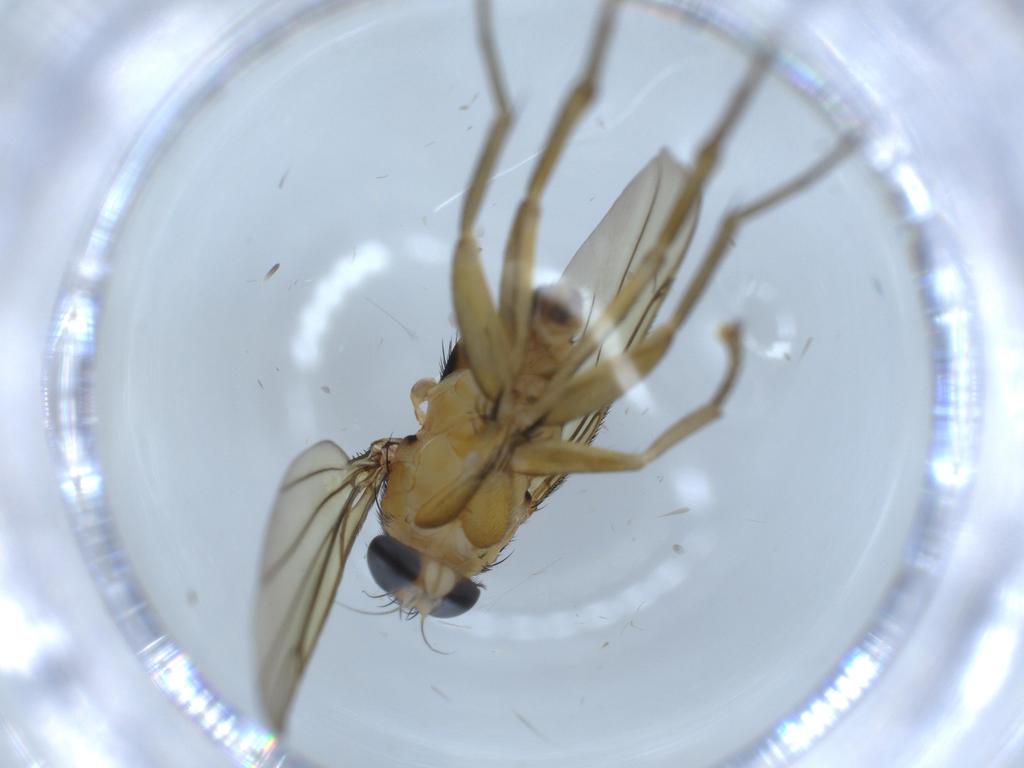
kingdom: Animalia
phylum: Arthropoda
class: Insecta
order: Diptera
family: Phoridae
